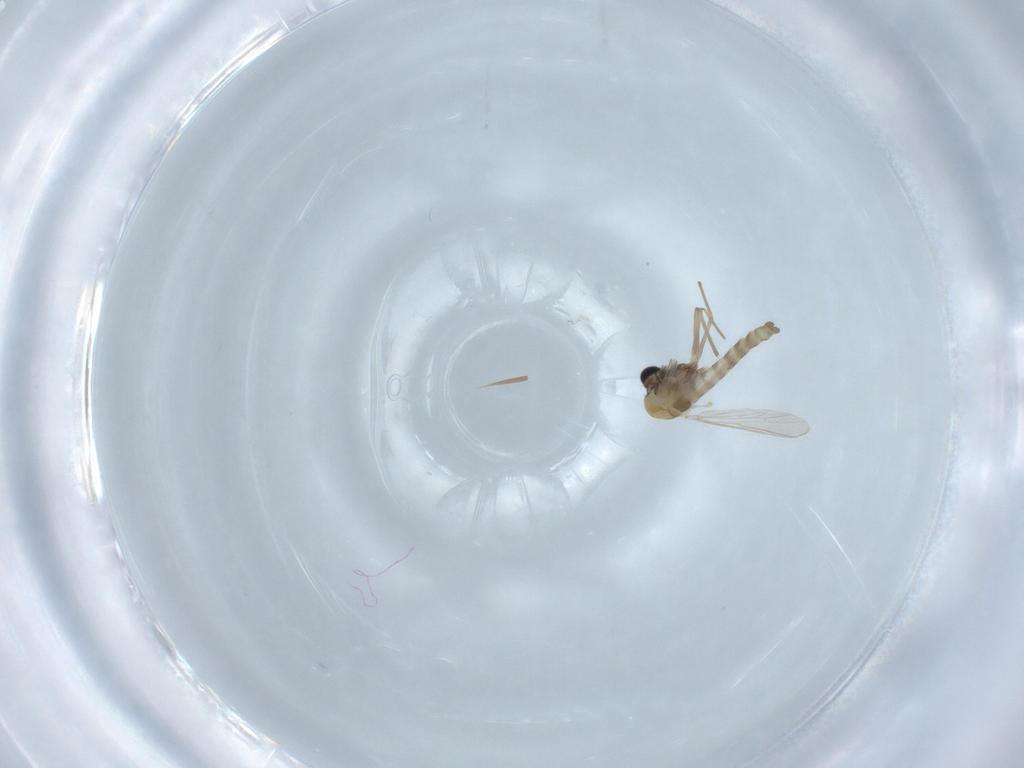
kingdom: Animalia
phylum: Arthropoda
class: Insecta
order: Diptera
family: Chironomidae
